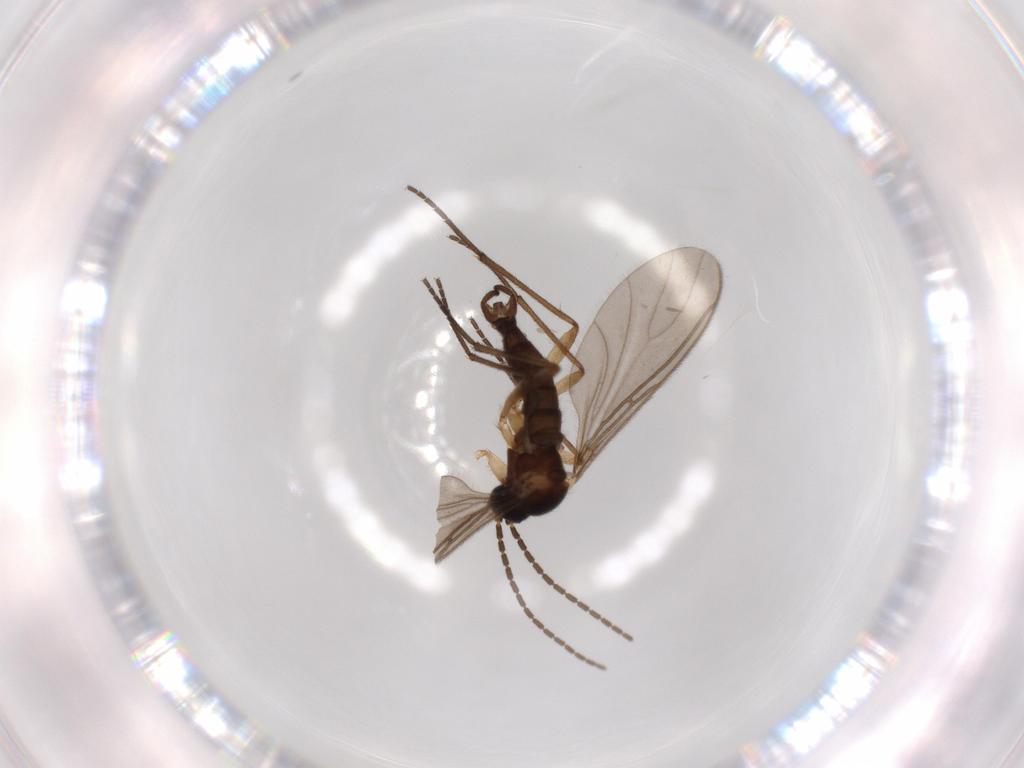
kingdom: Animalia
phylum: Arthropoda
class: Insecta
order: Diptera
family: Sciaridae
